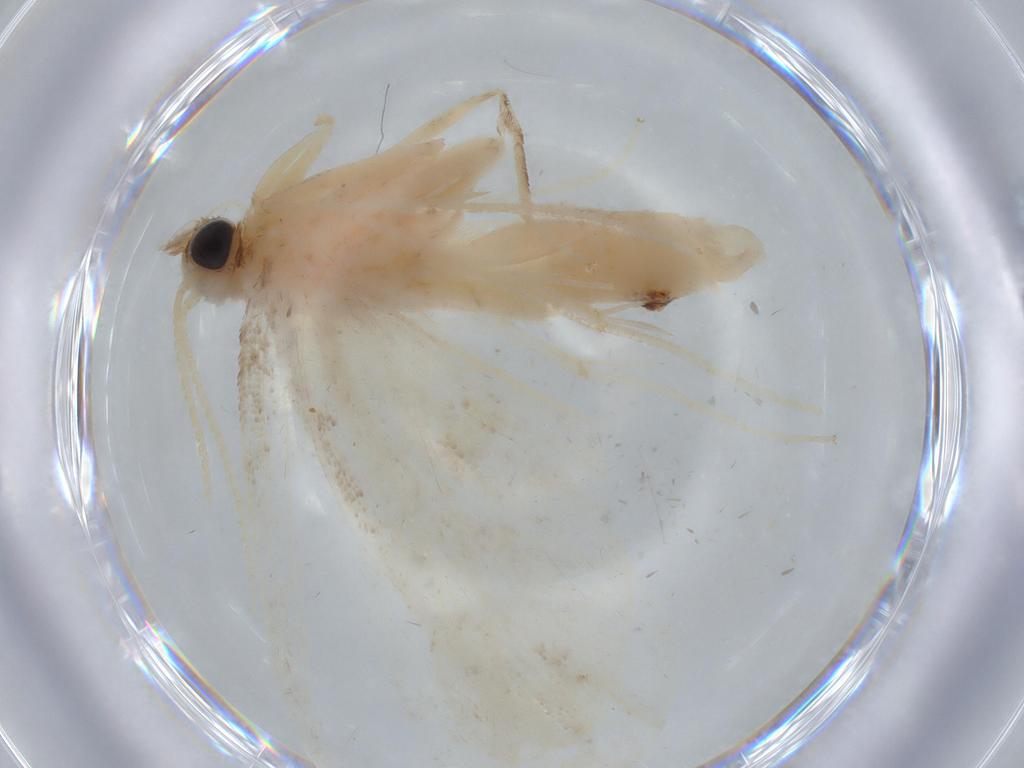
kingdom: Animalia
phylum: Arthropoda
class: Insecta
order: Lepidoptera
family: Crambidae
